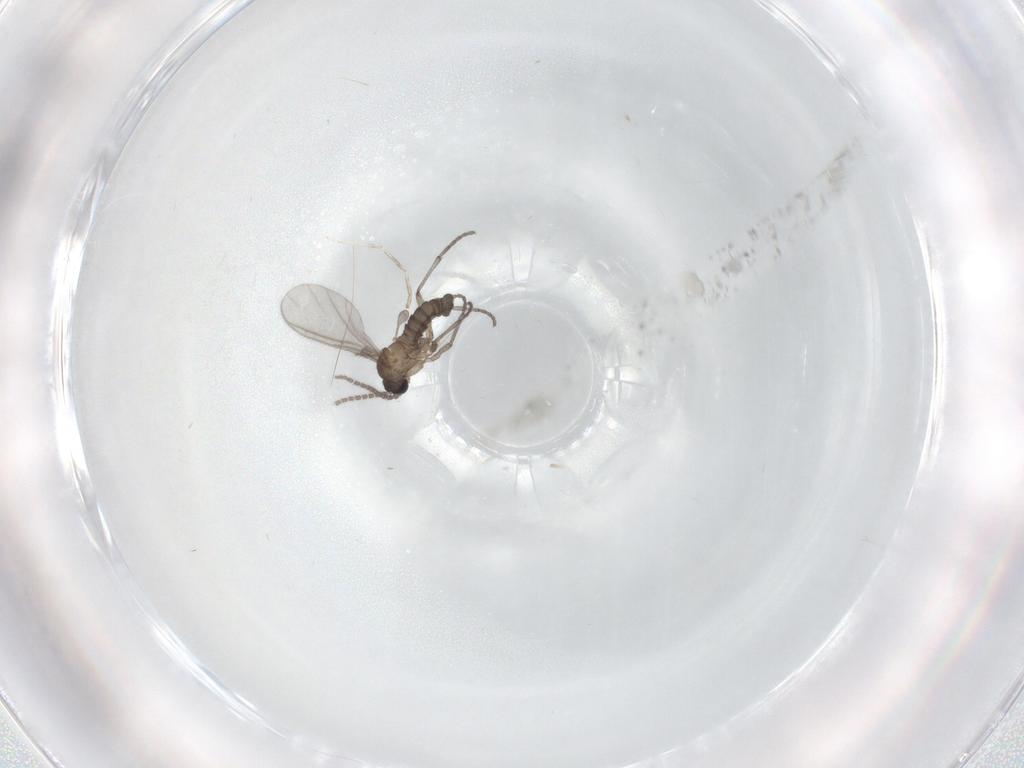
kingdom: Animalia
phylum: Arthropoda
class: Insecta
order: Diptera
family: Sciaridae
